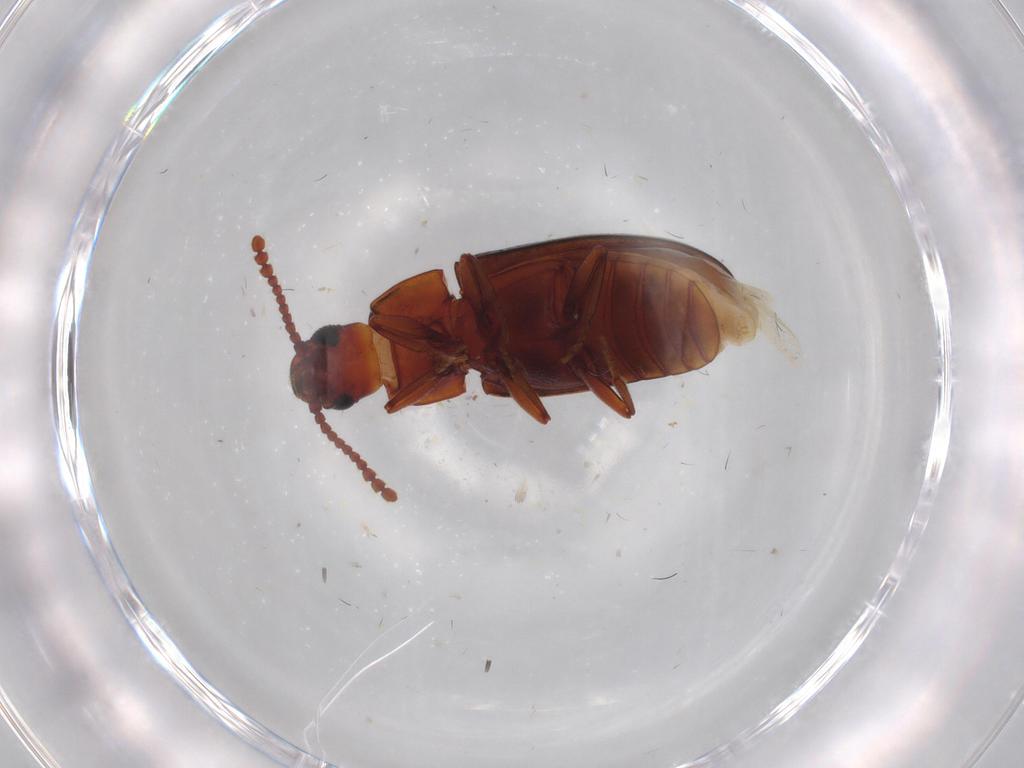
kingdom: Animalia
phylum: Arthropoda
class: Insecta
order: Coleoptera
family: Erotylidae
